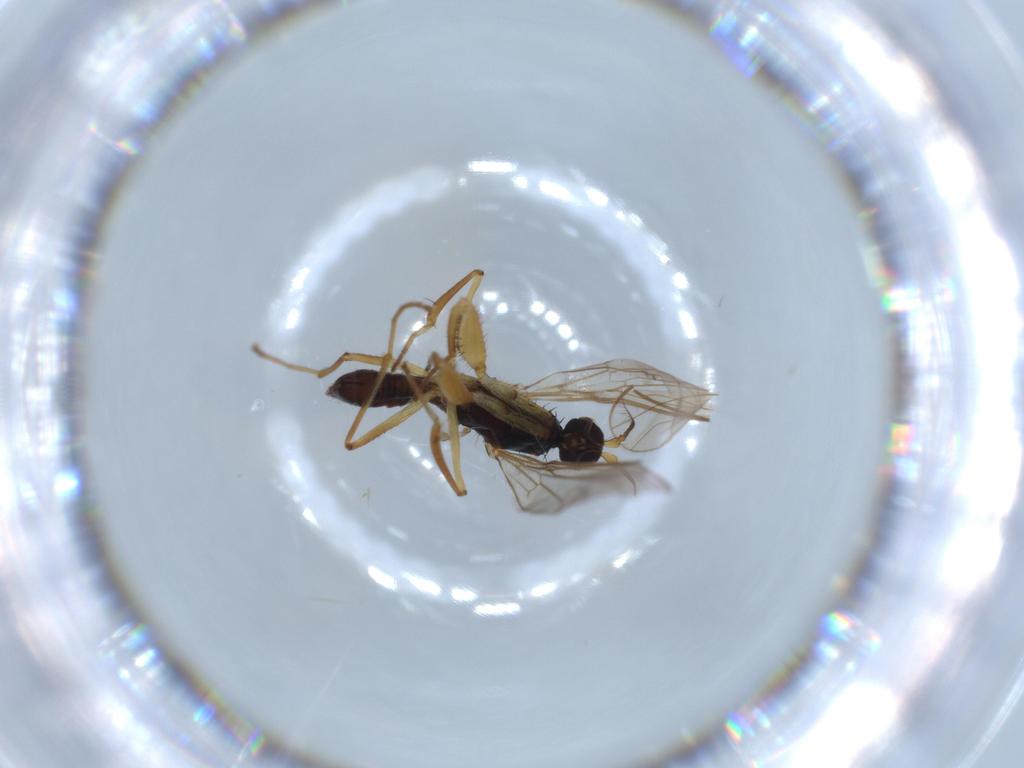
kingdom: Animalia
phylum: Arthropoda
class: Insecta
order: Diptera
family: Empididae
